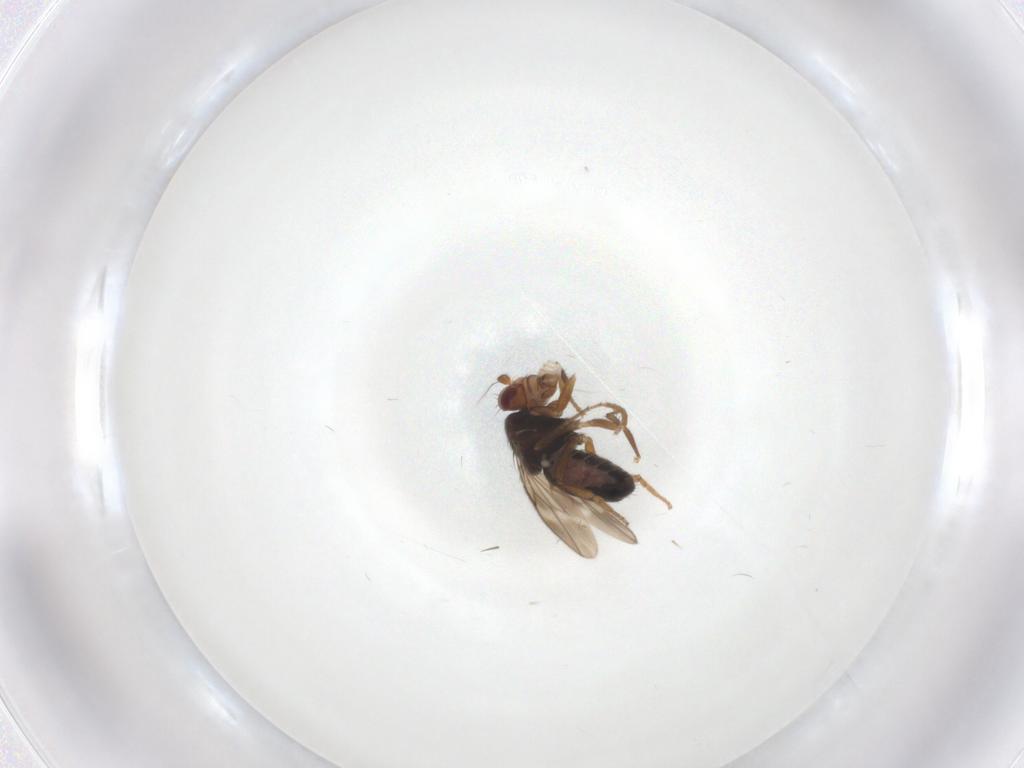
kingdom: Animalia
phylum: Arthropoda
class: Insecta
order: Diptera
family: Sphaeroceridae
